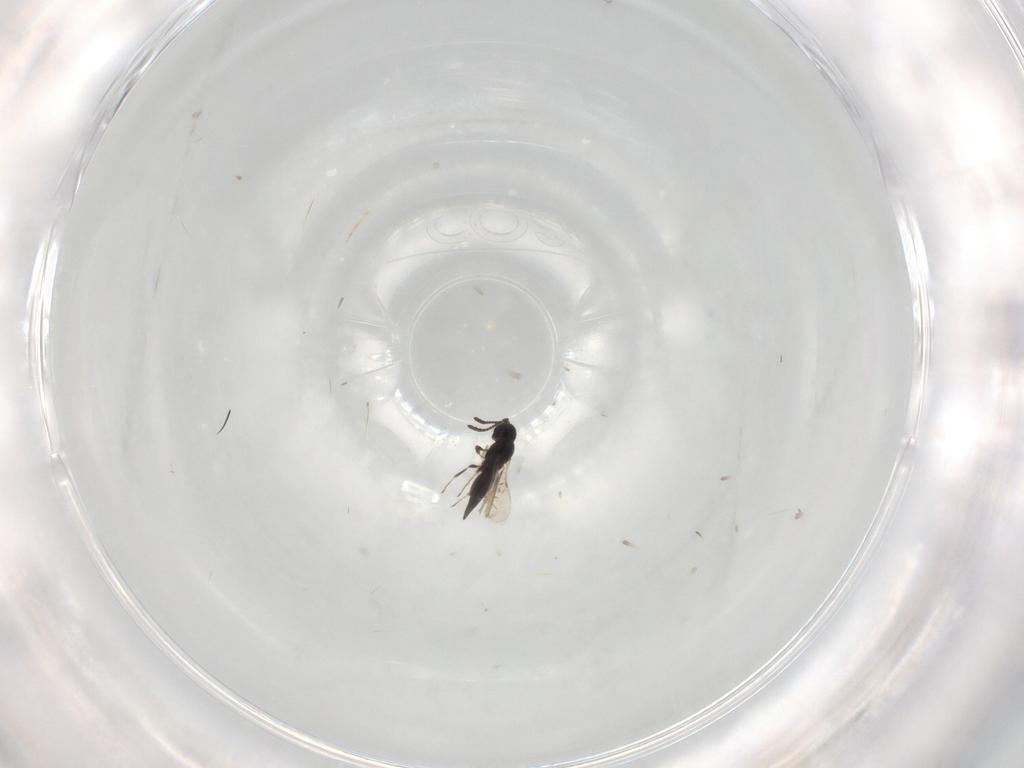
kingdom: Animalia
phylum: Arthropoda
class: Insecta
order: Hymenoptera
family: Scelionidae
